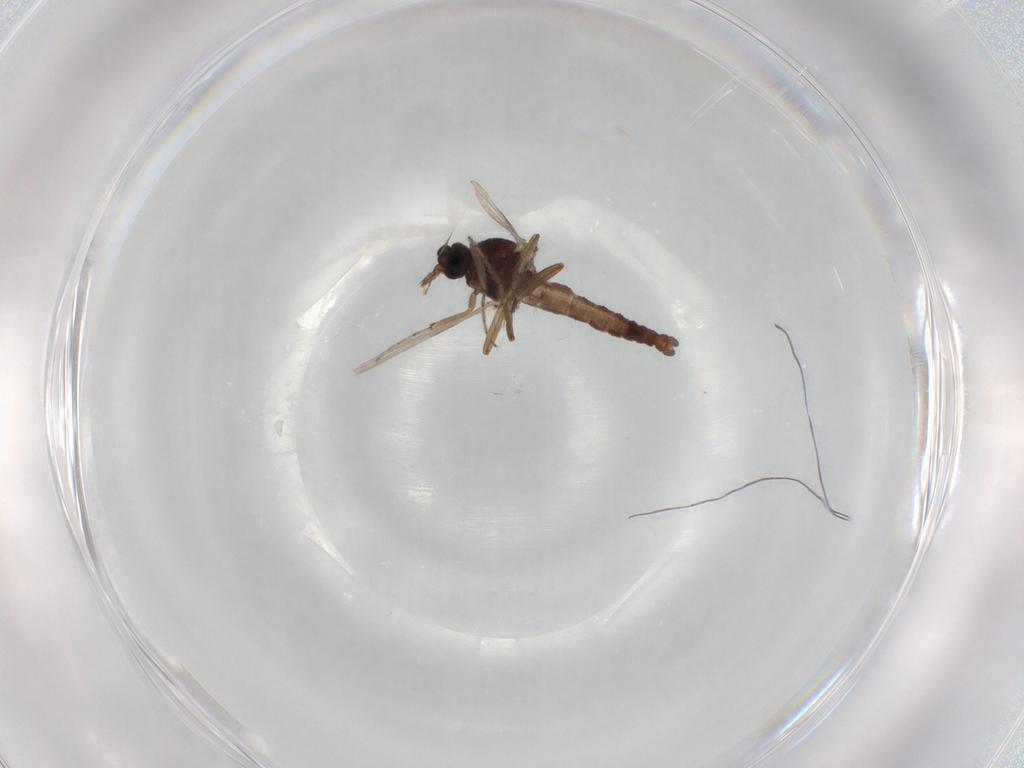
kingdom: Animalia
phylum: Arthropoda
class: Insecta
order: Diptera
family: Ceratopogonidae
